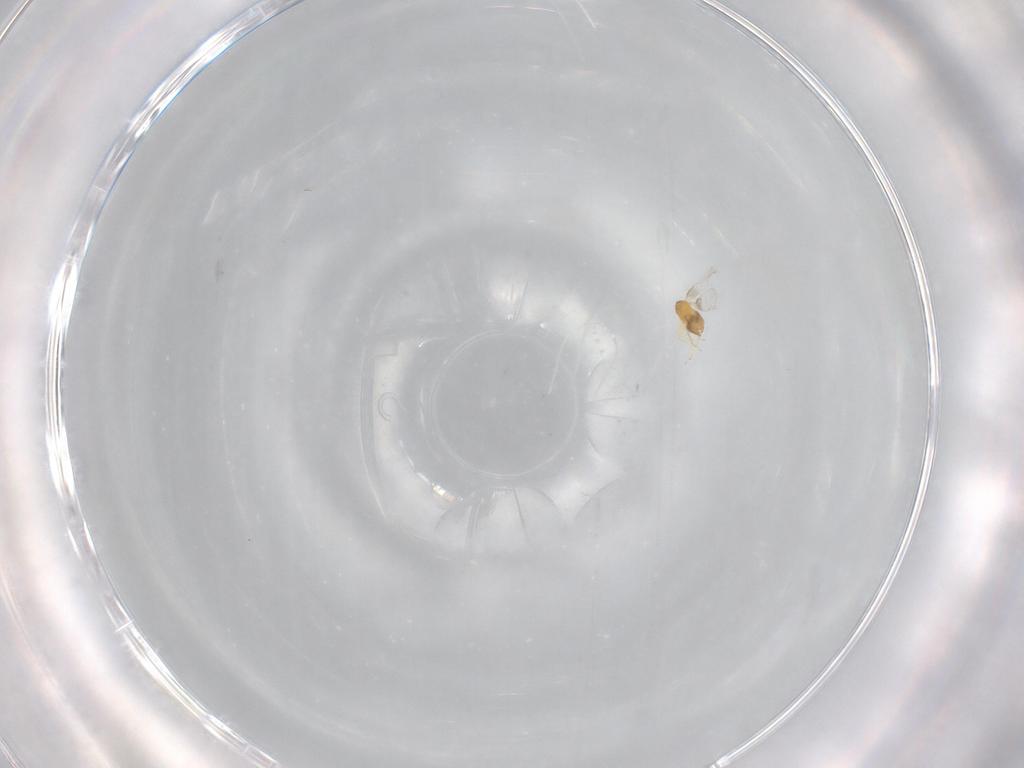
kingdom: Animalia
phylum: Arthropoda
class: Insecta
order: Hymenoptera
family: Trichogrammatidae
